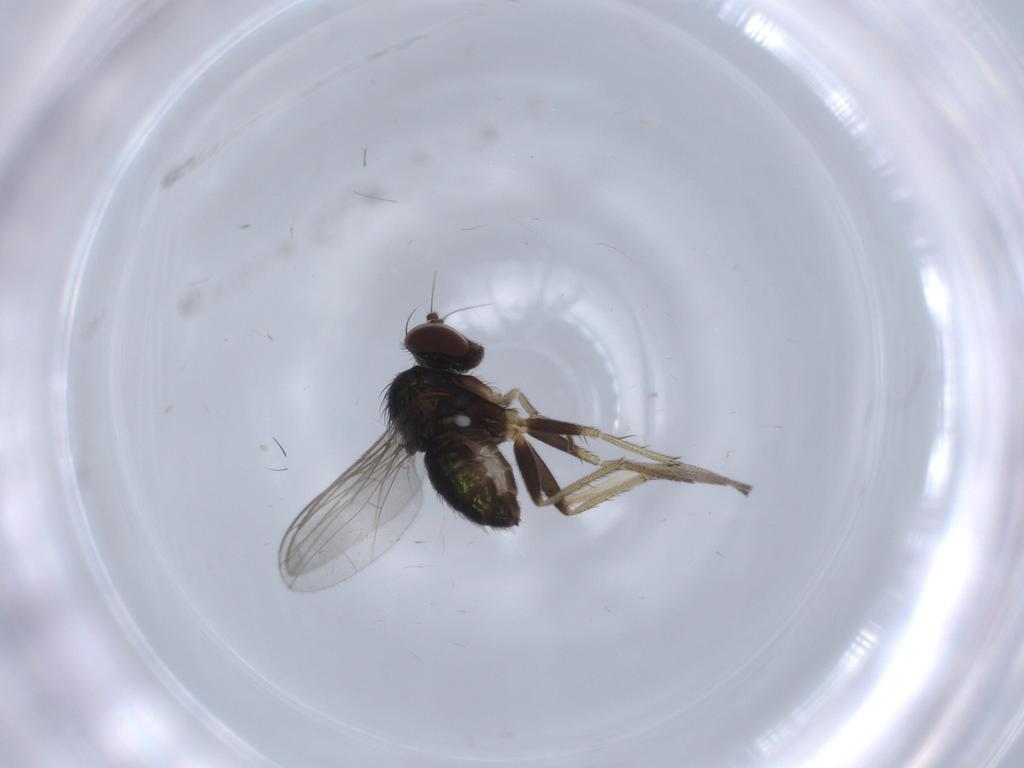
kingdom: Animalia
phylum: Arthropoda
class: Insecta
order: Diptera
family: Chironomidae
